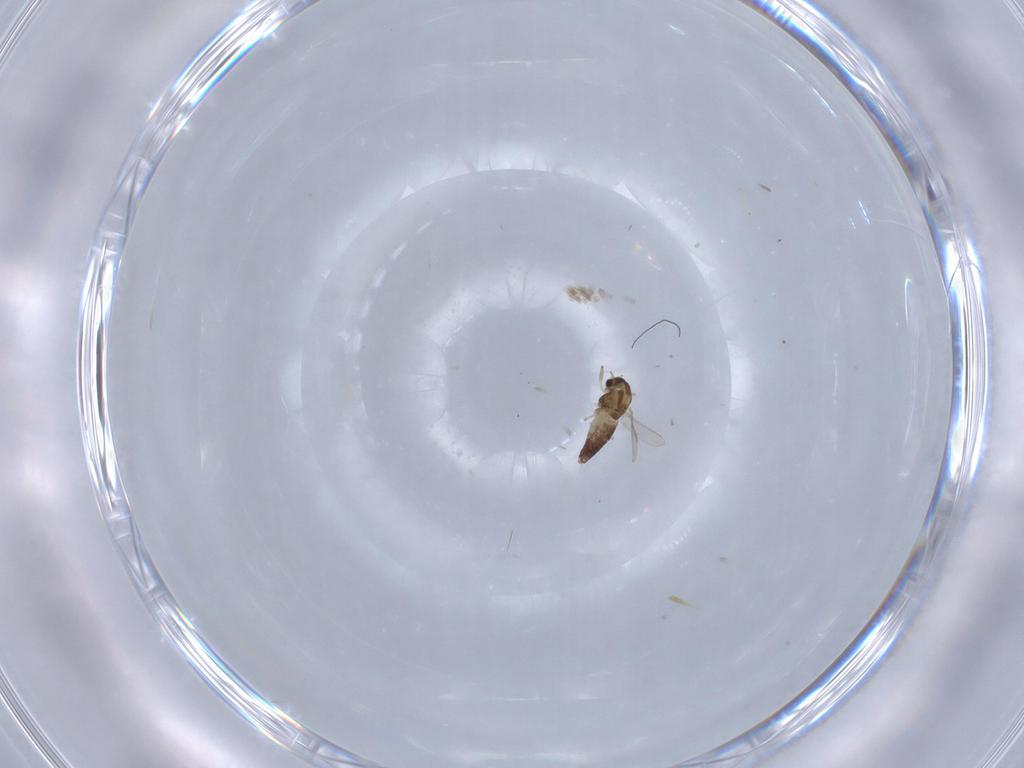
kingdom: Animalia
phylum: Arthropoda
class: Insecta
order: Diptera
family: Chironomidae
